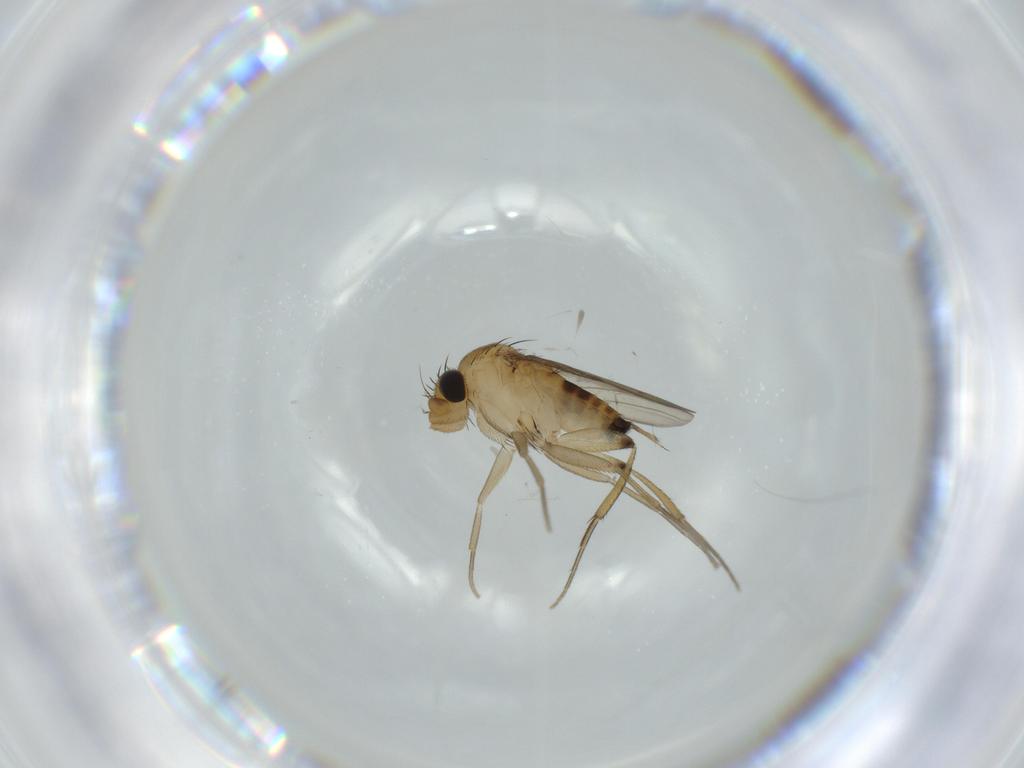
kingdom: Animalia
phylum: Arthropoda
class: Insecta
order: Diptera
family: Phoridae
